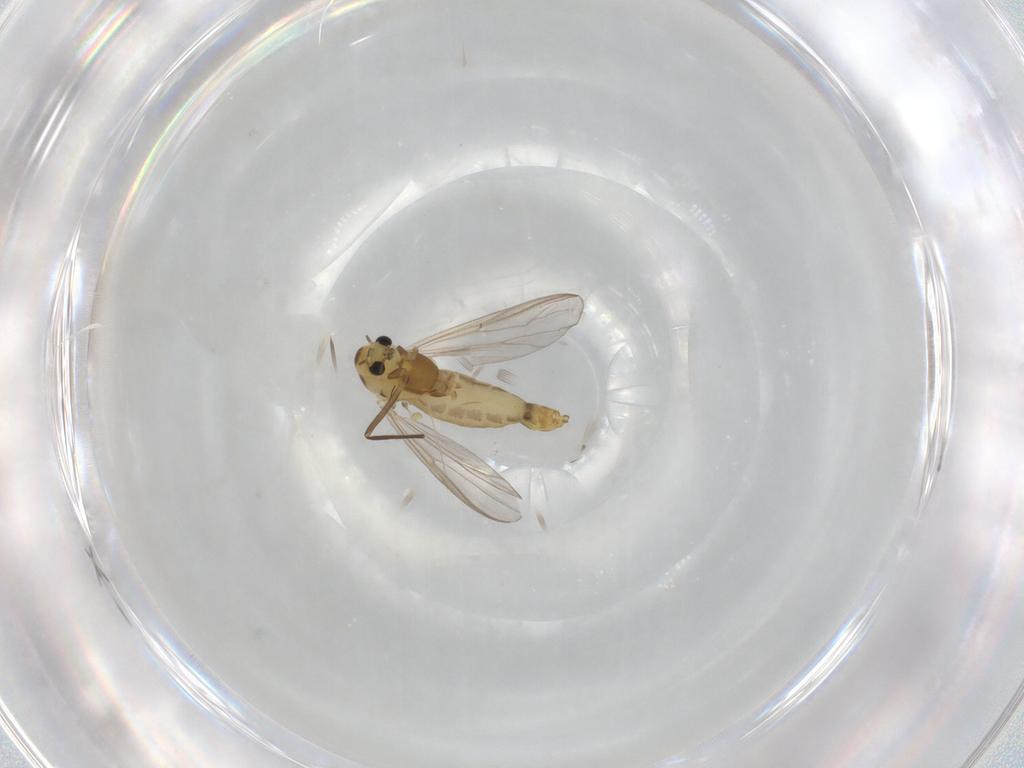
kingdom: Animalia
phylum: Arthropoda
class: Insecta
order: Diptera
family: Chironomidae
